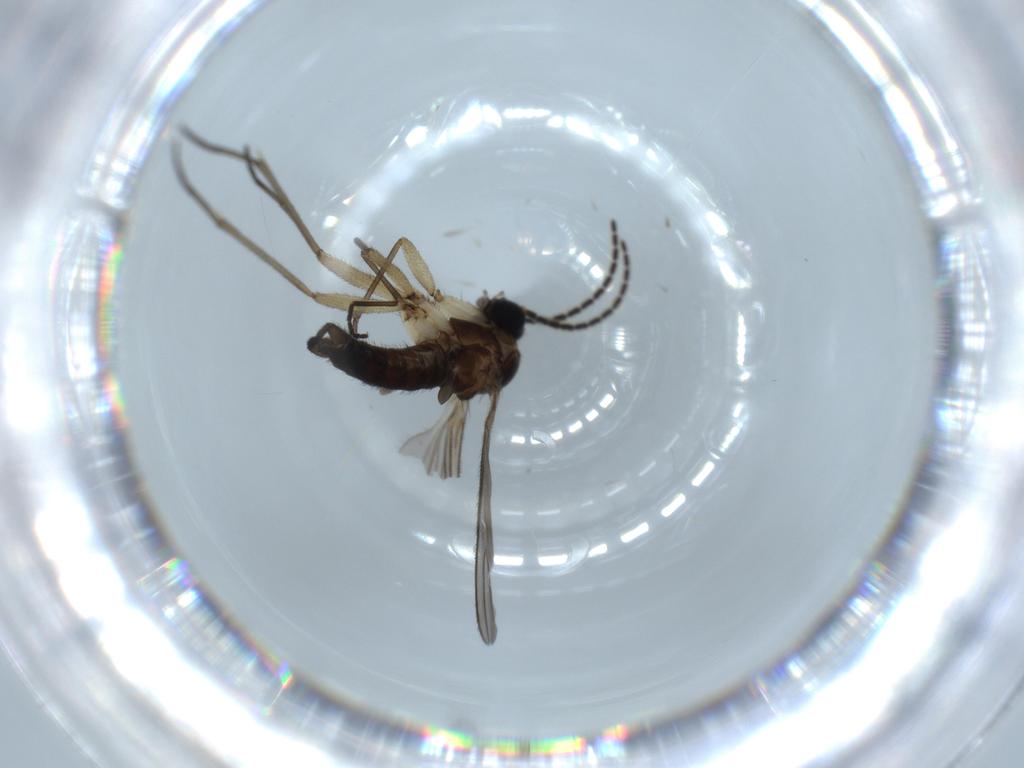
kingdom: Animalia
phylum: Arthropoda
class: Insecta
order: Diptera
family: Sciaridae
